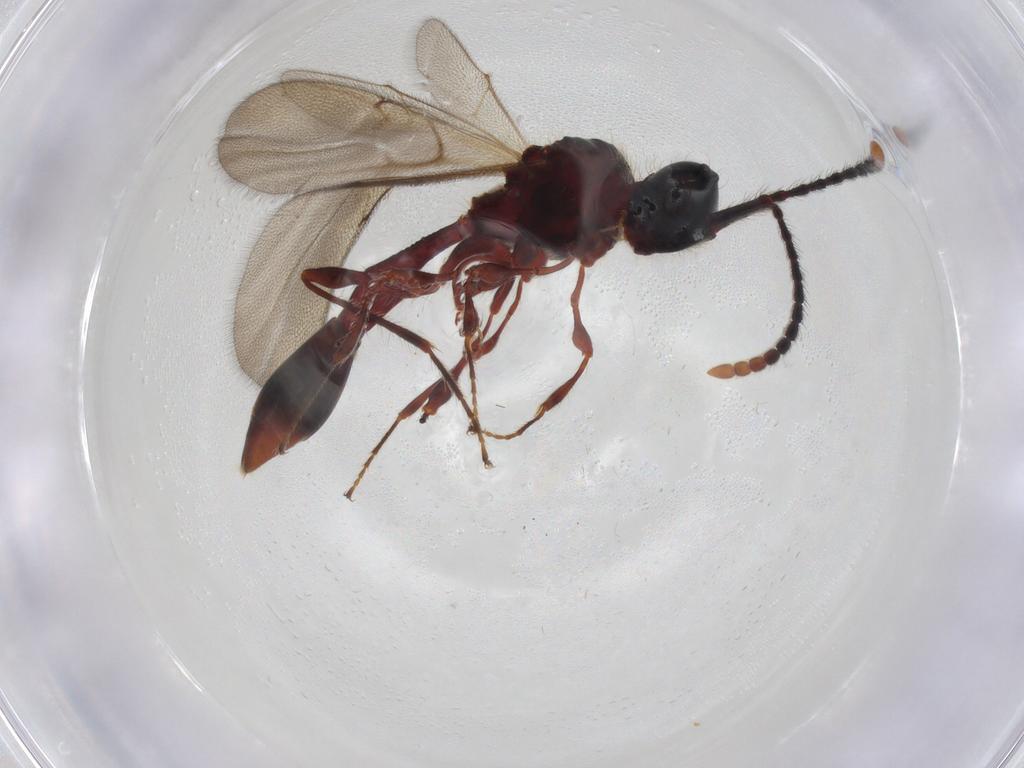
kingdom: Animalia
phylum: Arthropoda
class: Insecta
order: Hymenoptera
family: Diapriidae
